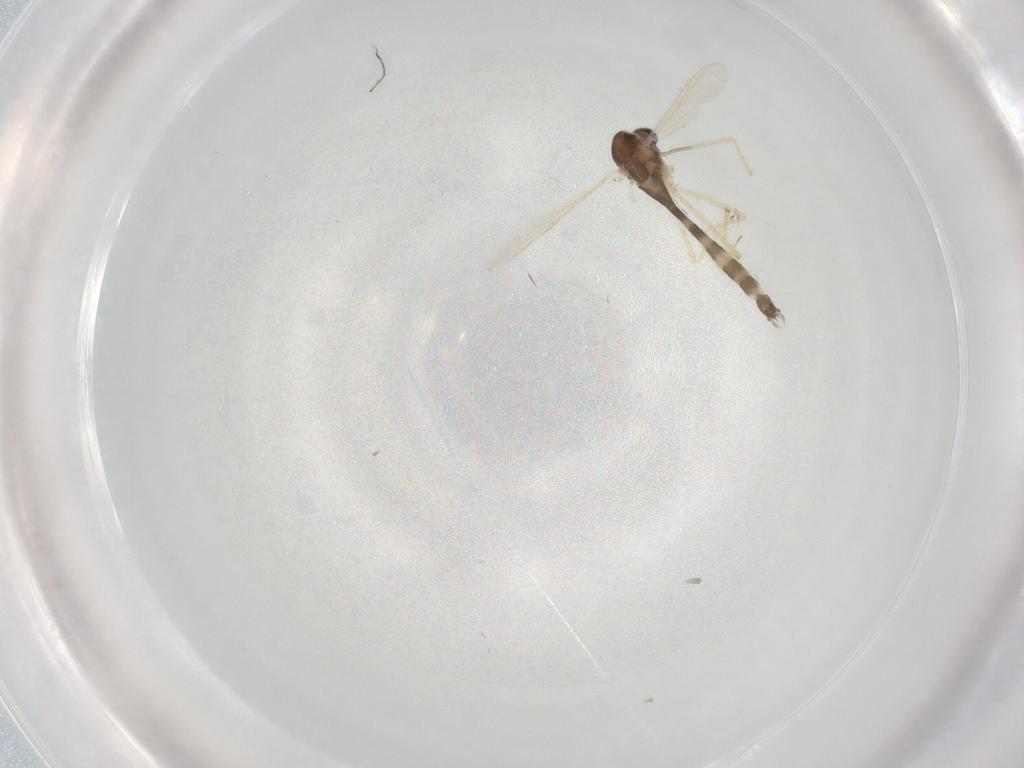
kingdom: Animalia
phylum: Arthropoda
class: Insecta
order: Diptera
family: Chironomidae
